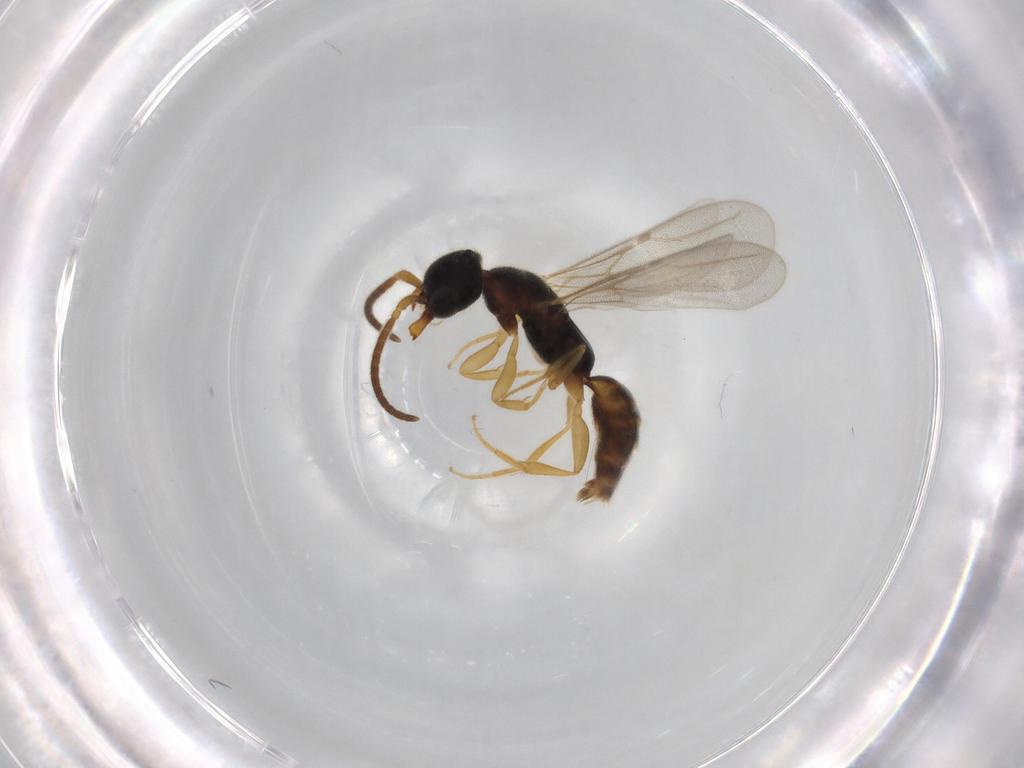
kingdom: Animalia
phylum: Arthropoda
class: Insecta
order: Hymenoptera
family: Bethylidae
